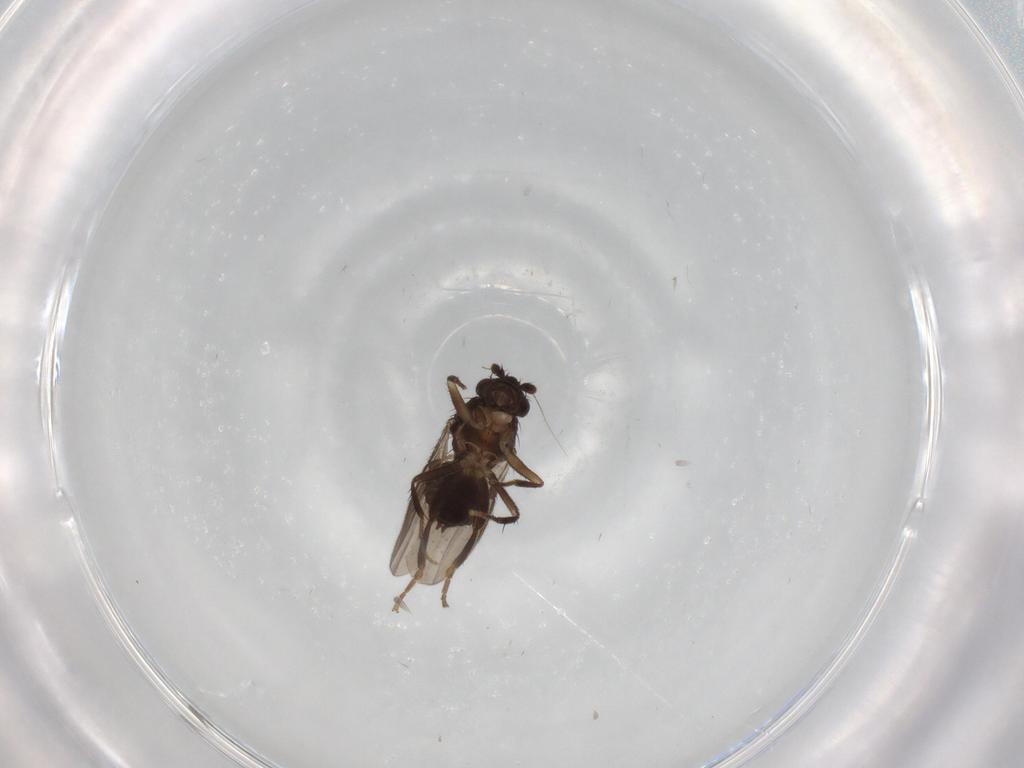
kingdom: Animalia
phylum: Arthropoda
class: Insecta
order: Diptera
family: Sphaeroceridae
